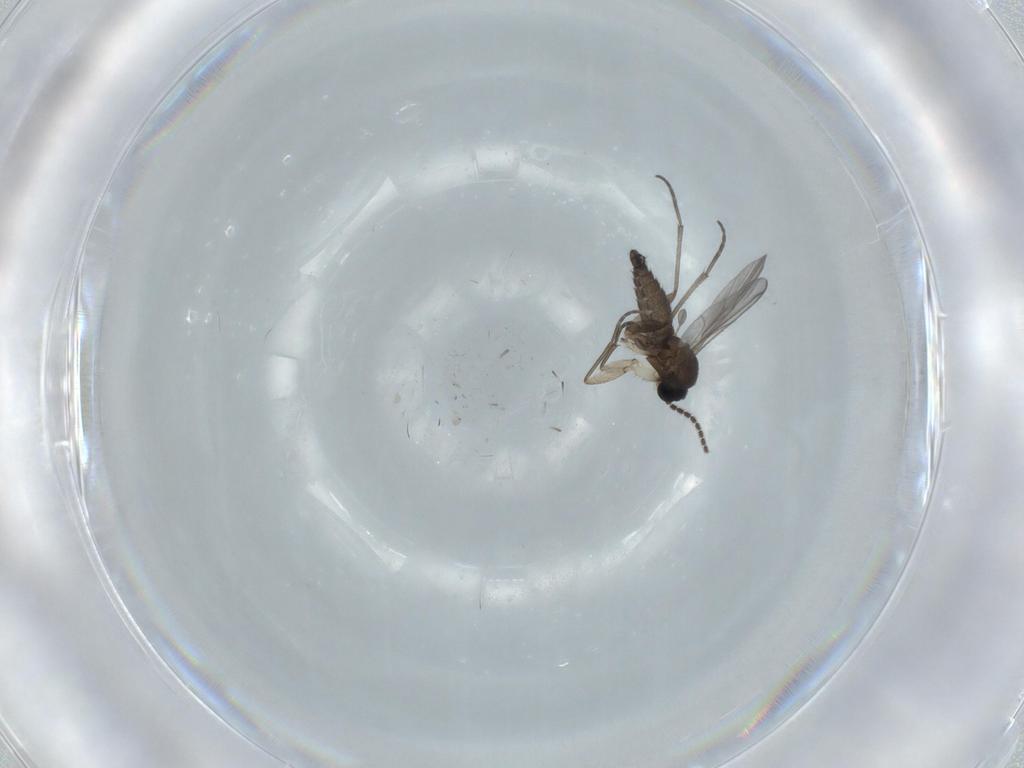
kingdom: Animalia
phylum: Arthropoda
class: Insecta
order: Diptera
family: Sciaridae
